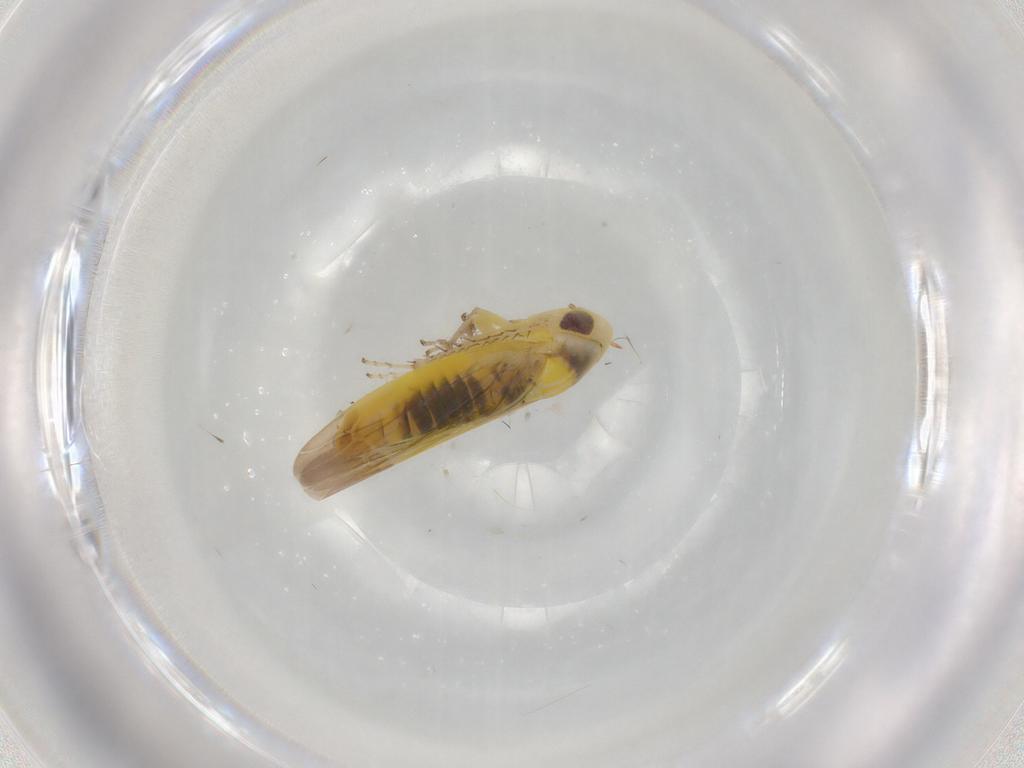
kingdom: Animalia
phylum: Arthropoda
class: Insecta
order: Hemiptera
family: Cicadellidae
